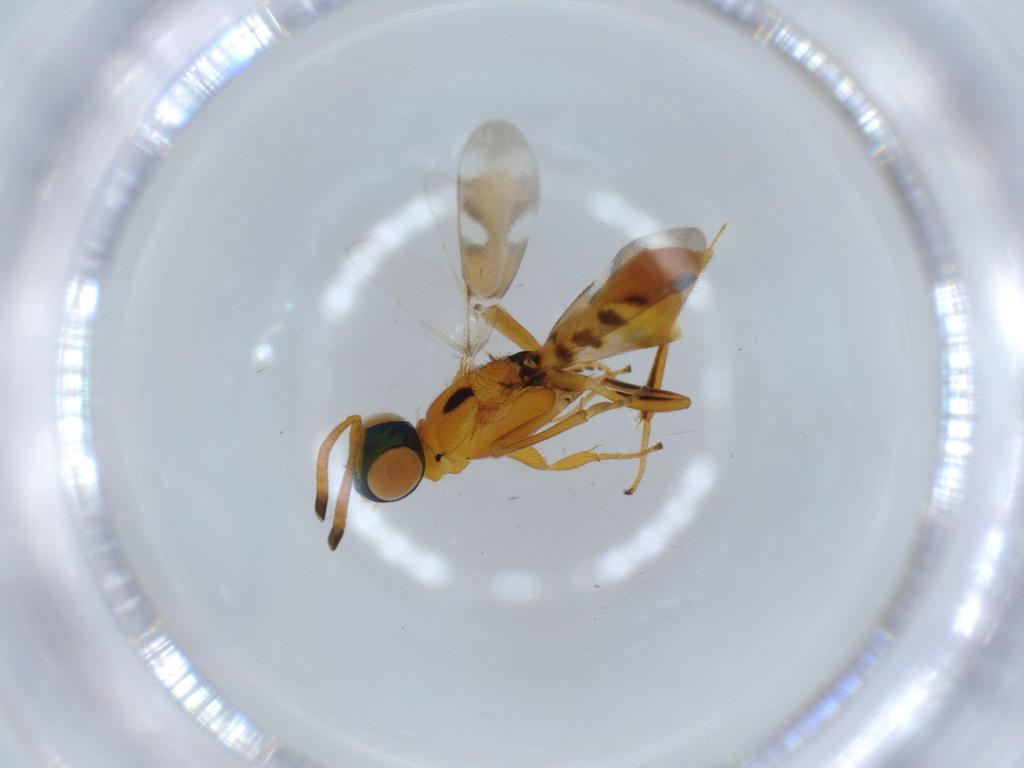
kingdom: Animalia
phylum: Arthropoda
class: Insecta
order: Hymenoptera
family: Eupelmidae
